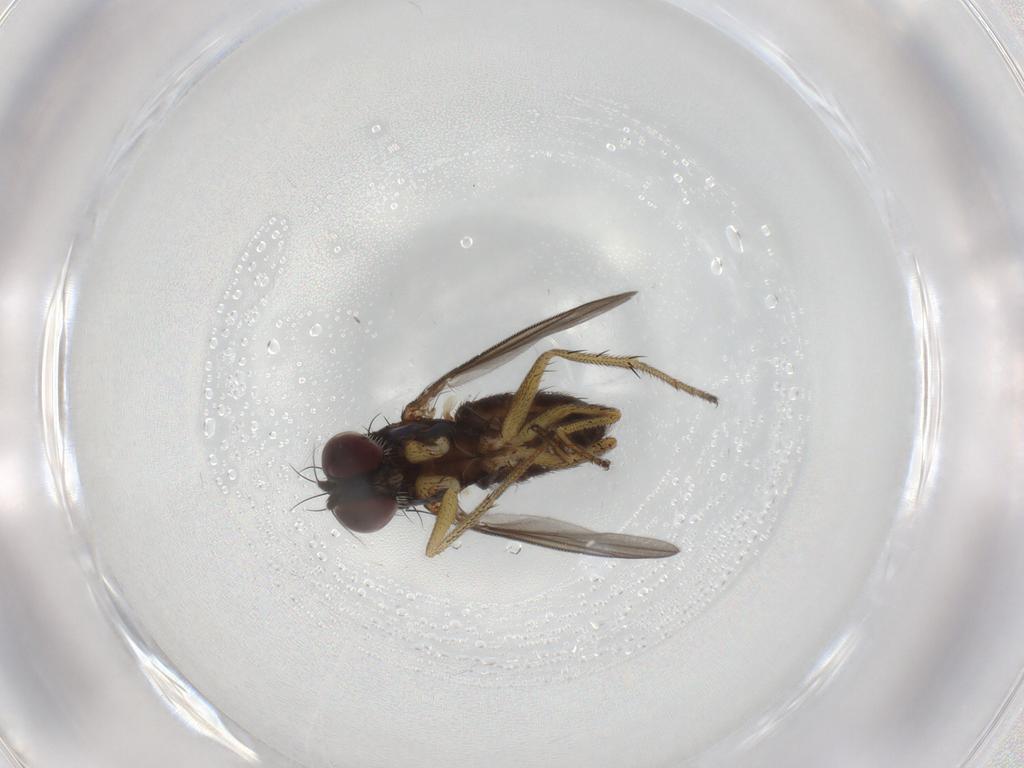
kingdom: Animalia
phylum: Arthropoda
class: Insecta
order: Diptera
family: Dolichopodidae
